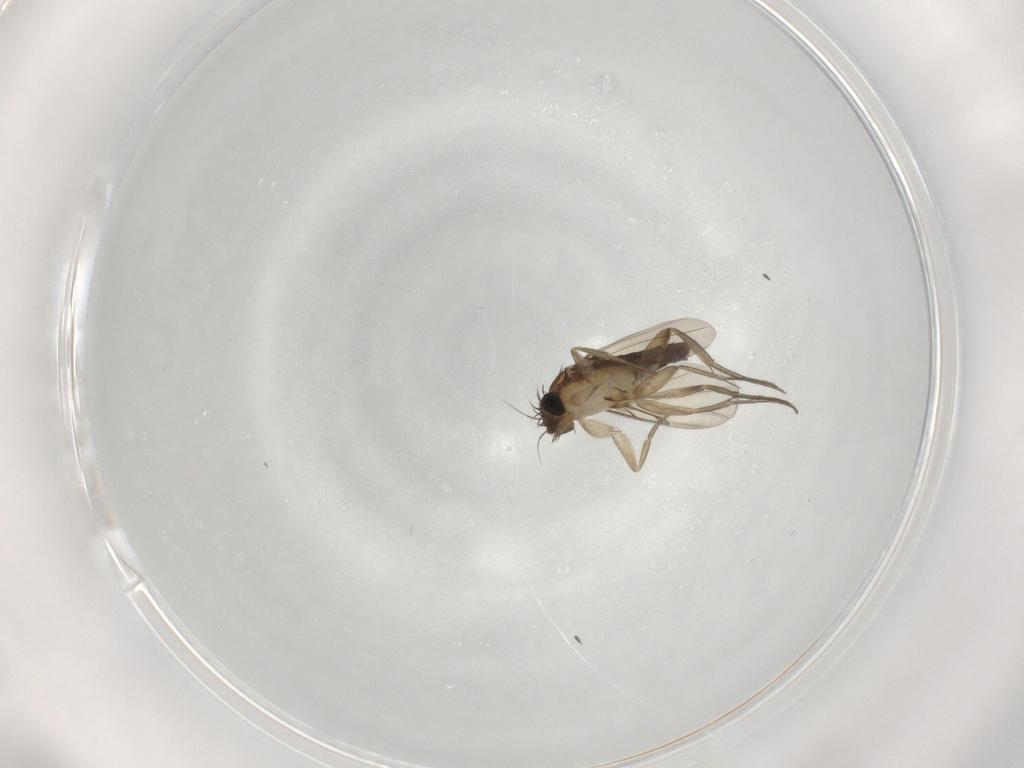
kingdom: Animalia
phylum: Arthropoda
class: Insecta
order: Diptera
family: Phoridae
